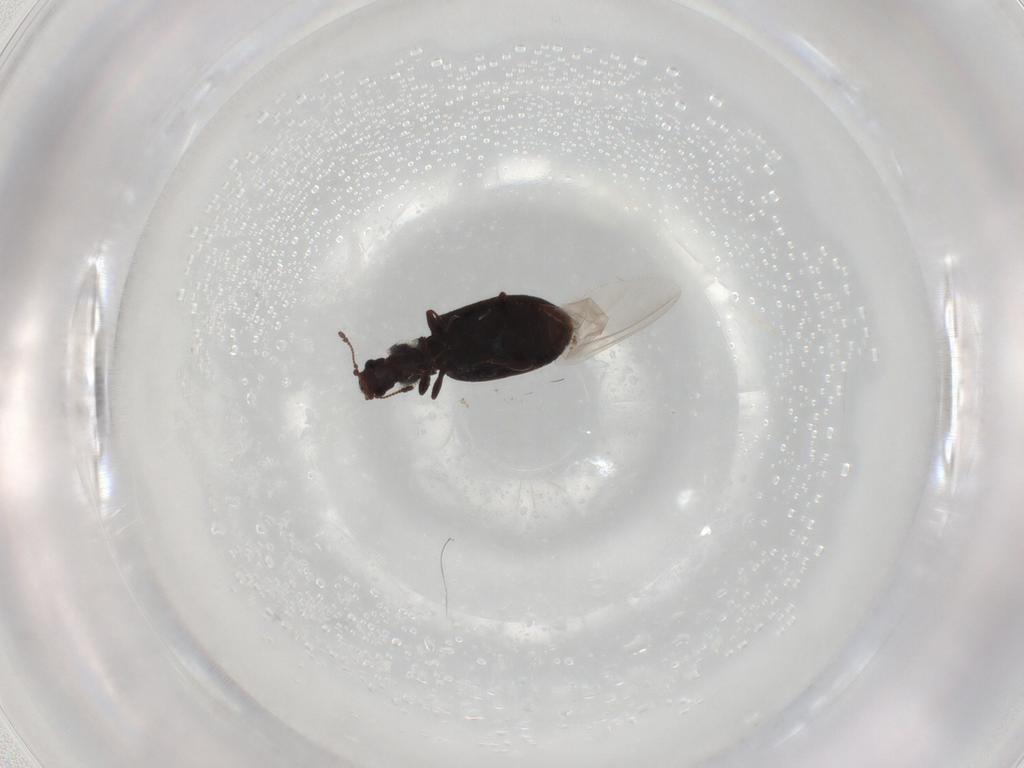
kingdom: Animalia
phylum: Arthropoda
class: Insecta
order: Coleoptera
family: Latridiidae
